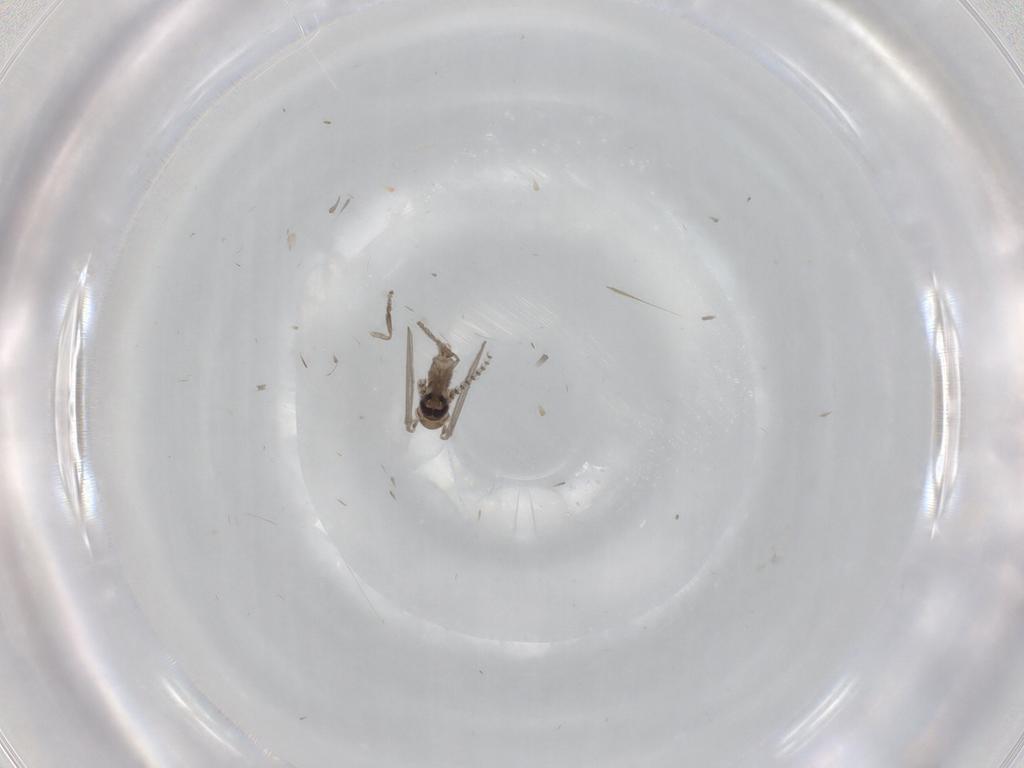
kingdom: Animalia
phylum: Arthropoda
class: Insecta
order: Diptera
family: Psychodidae
